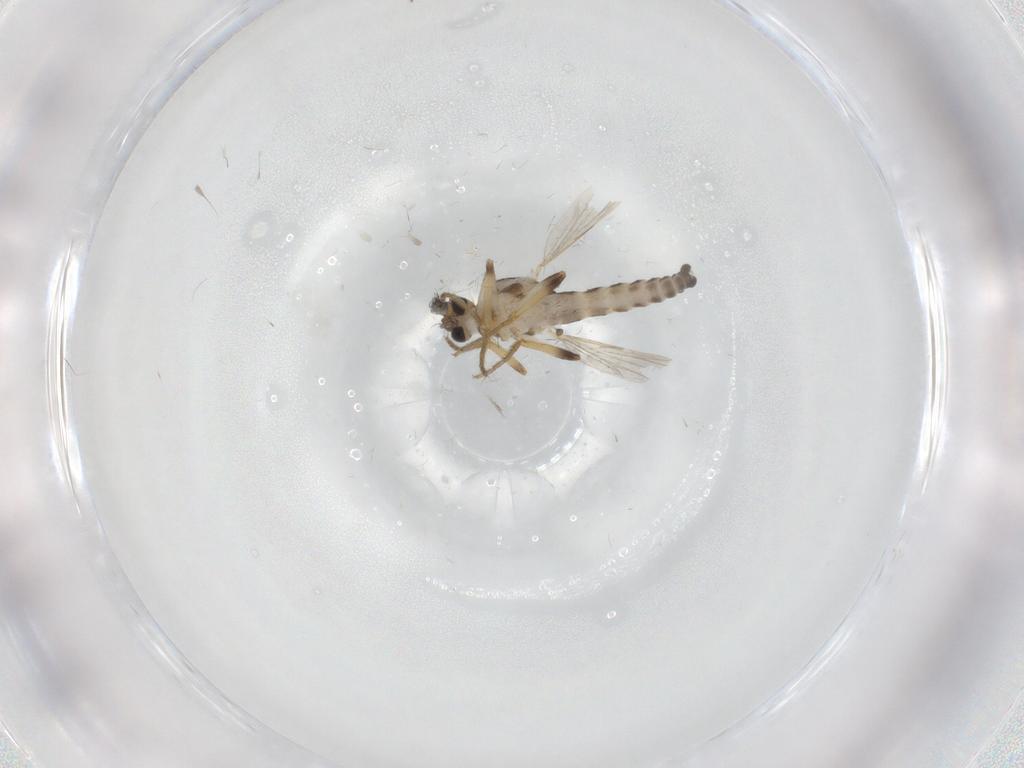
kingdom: Animalia
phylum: Arthropoda
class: Insecta
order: Diptera
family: Ceratopogonidae
